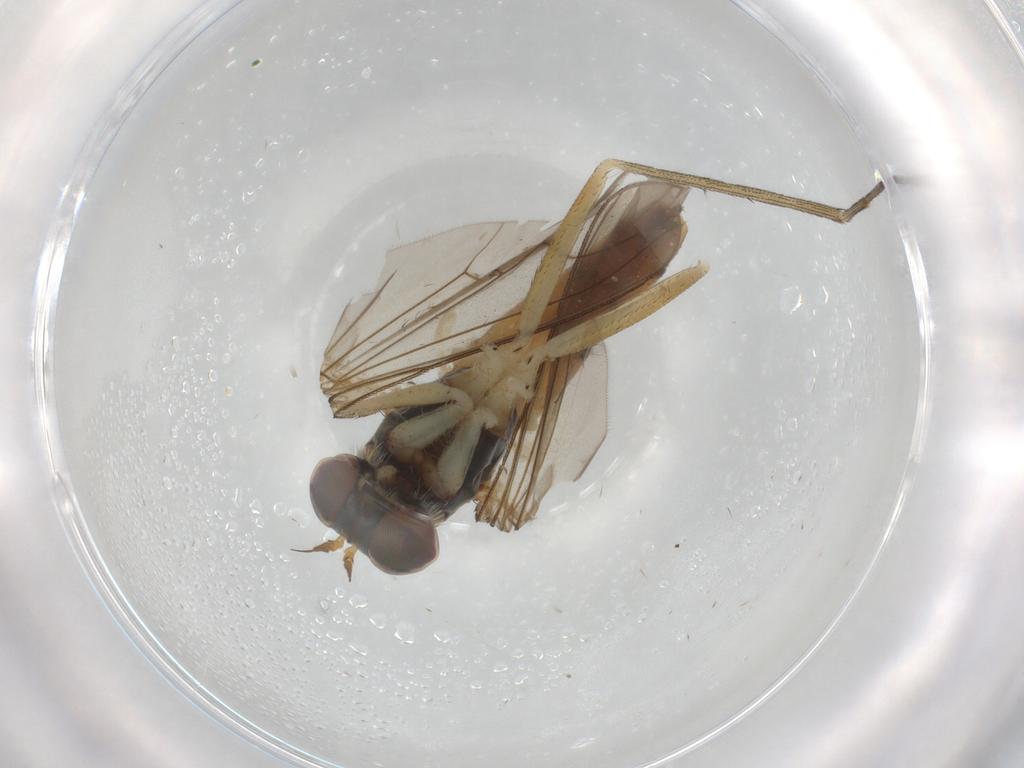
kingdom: Animalia
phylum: Arthropoda
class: Insecta
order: Diptera
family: Dolichopodidae
